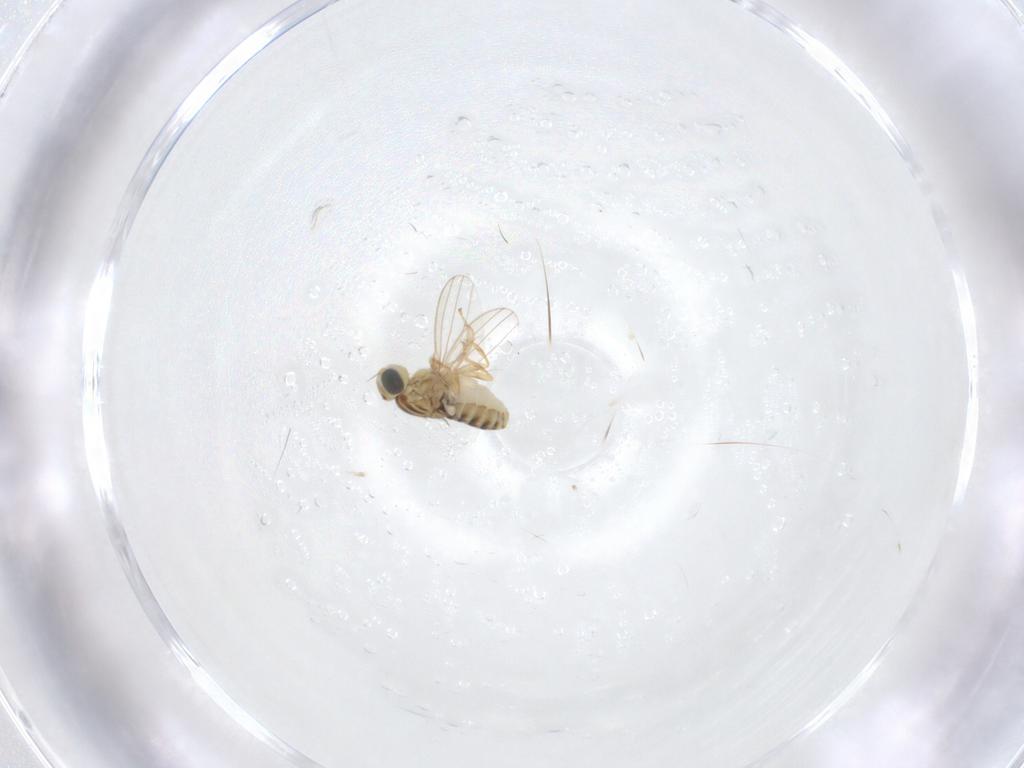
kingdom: Animalia
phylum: Arthropoda
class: Insecta
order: Diptera
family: Chyromyidae
